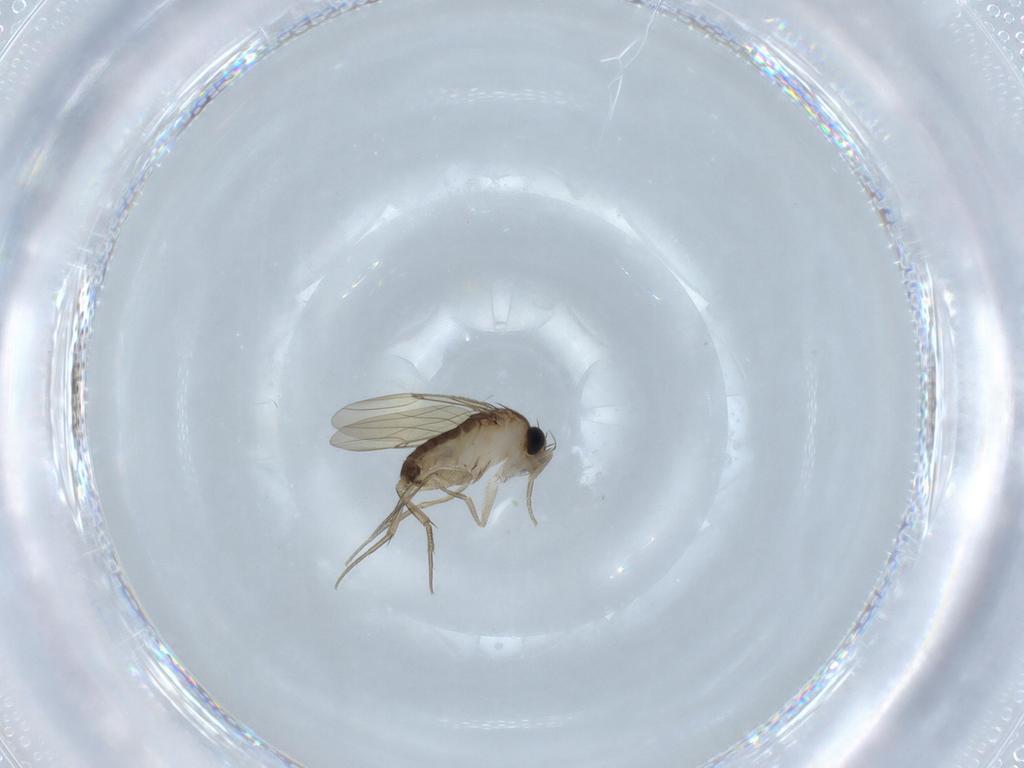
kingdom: Animalia
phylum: Arthropoda
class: Insecta
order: Diptera
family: Phoridae
